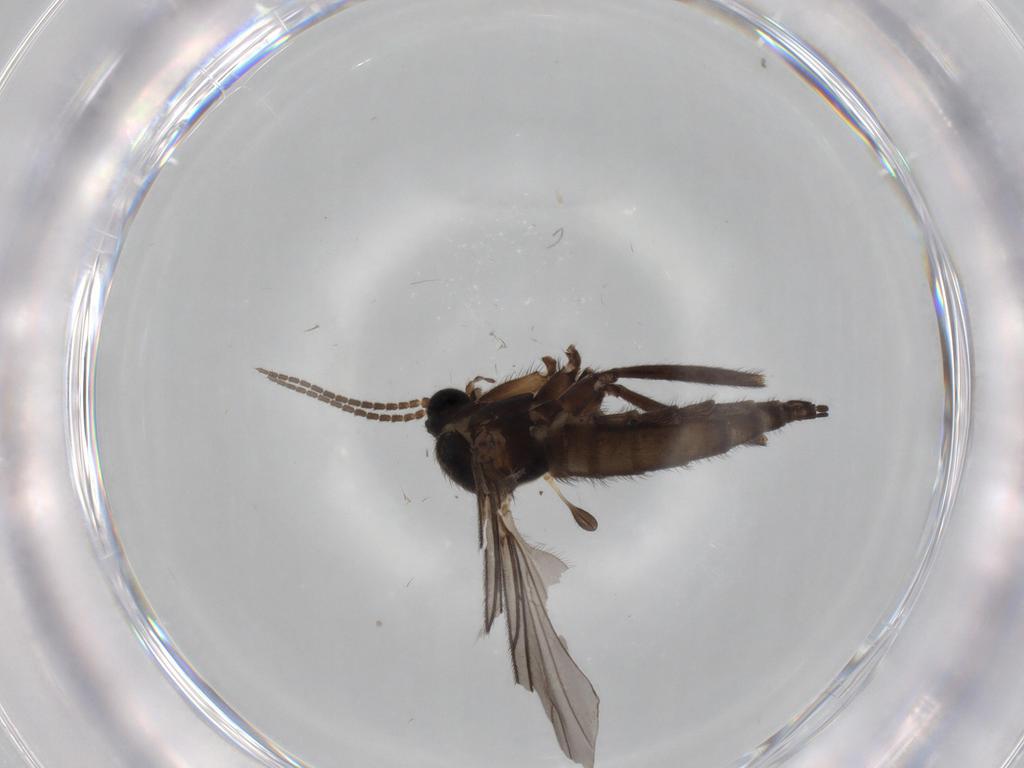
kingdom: Animalia
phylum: Arthropoda
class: Insecta
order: Diptera
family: Sciaridae
